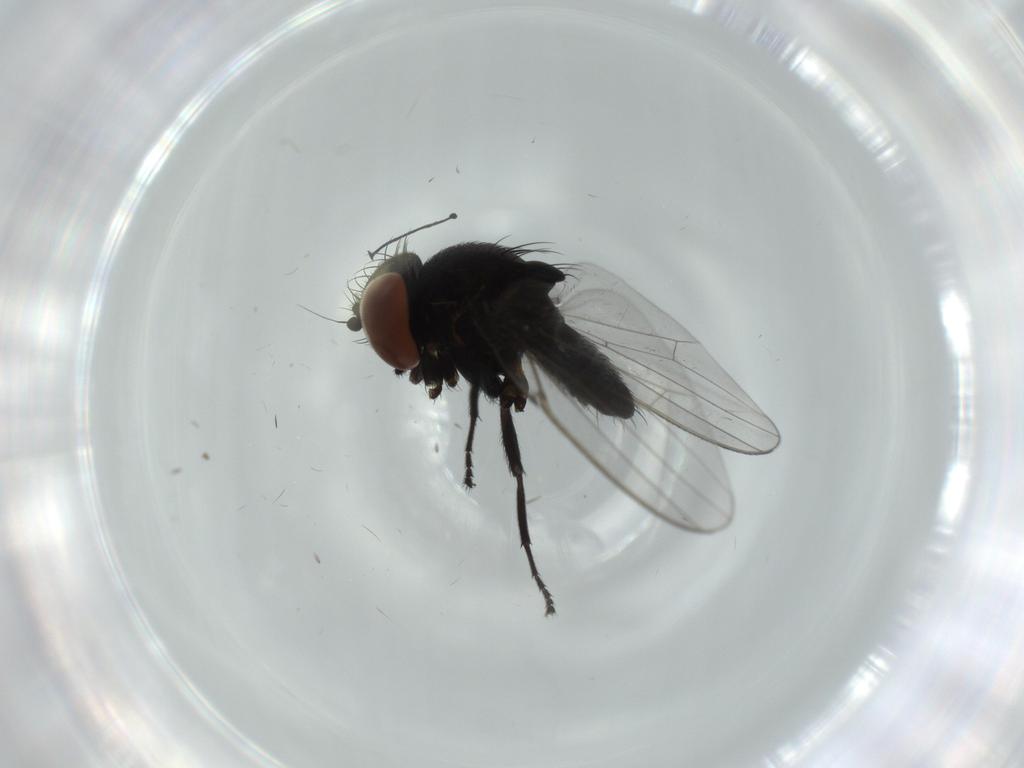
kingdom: Animalia
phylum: Arthropoda
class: Insecta
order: Diptera
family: Milichiidae
